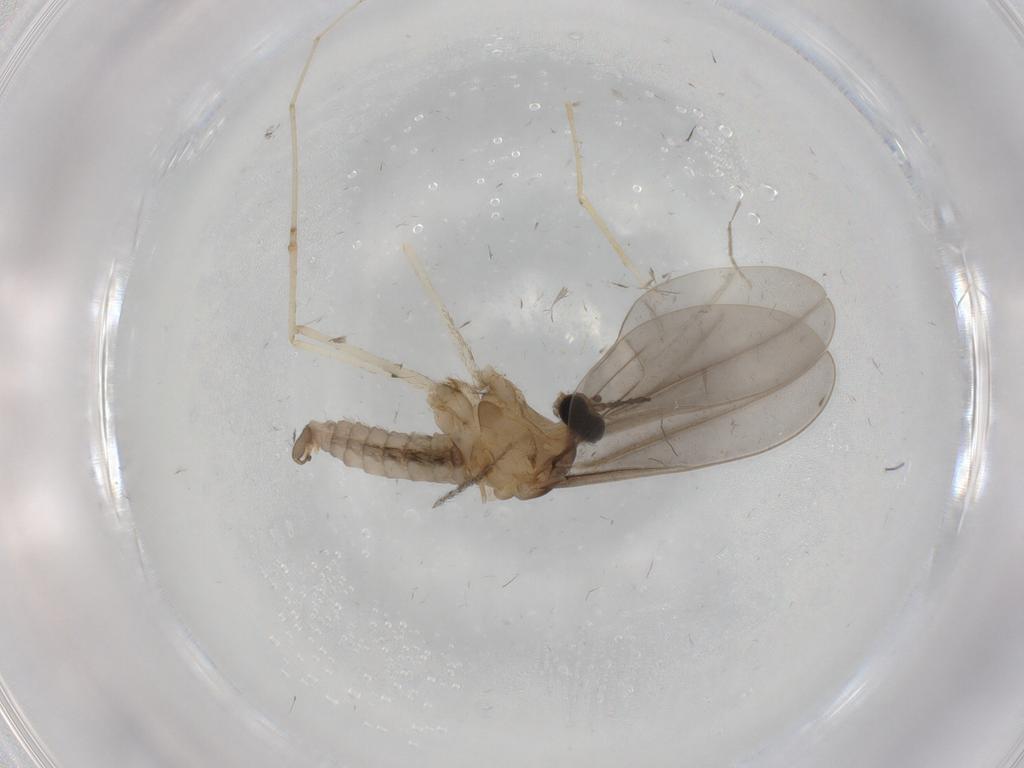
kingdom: Animalia
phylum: Arthropoda
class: Insecta
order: Diptera
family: Cecidomyiidae
